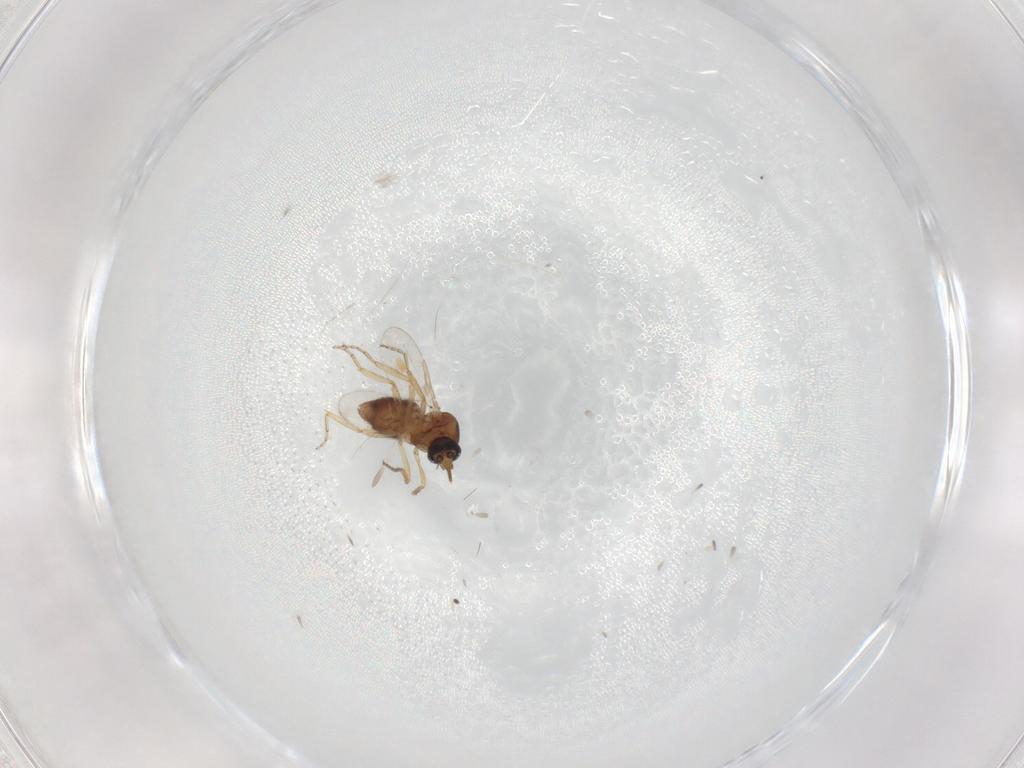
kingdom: Animalia
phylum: Arthropoda
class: Insecta
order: Diptera
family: Ceratopogonidae
